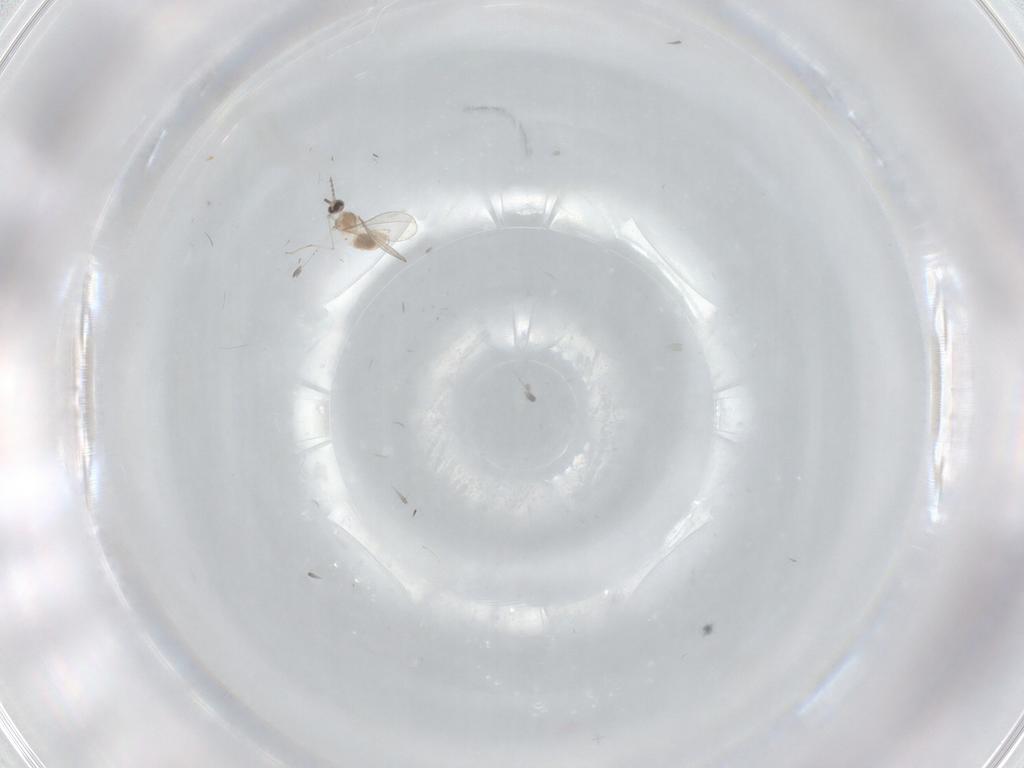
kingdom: Animalia
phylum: Arthropoda
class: Insecta
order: Diptera
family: Cecidomyiidae
